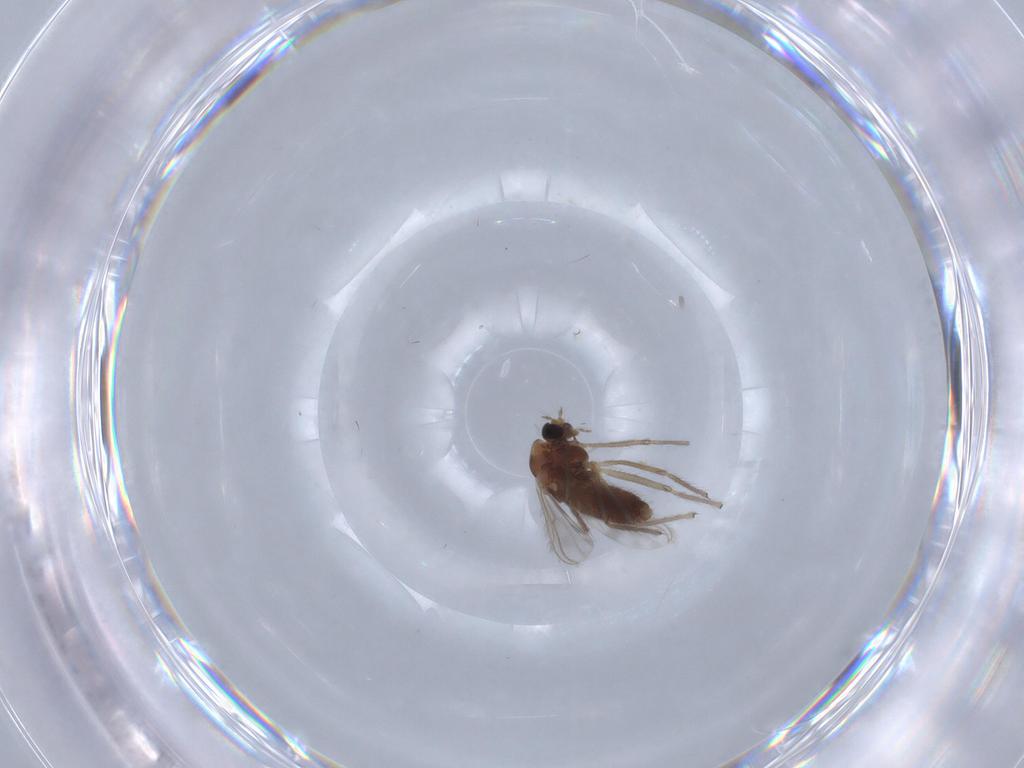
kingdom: Animalia
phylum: Arthropoda
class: Insecta
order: Diptera
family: Chironomidae
